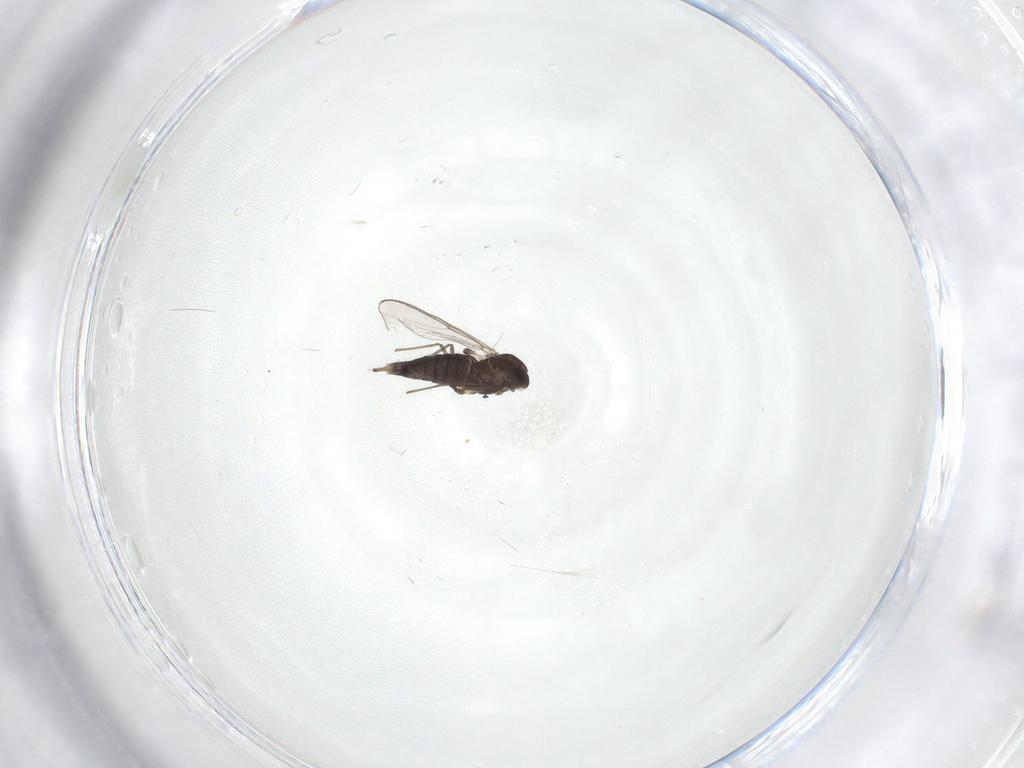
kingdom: Animalia
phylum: Arthropoda
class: Insecta
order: Diptera
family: Chironomidae
